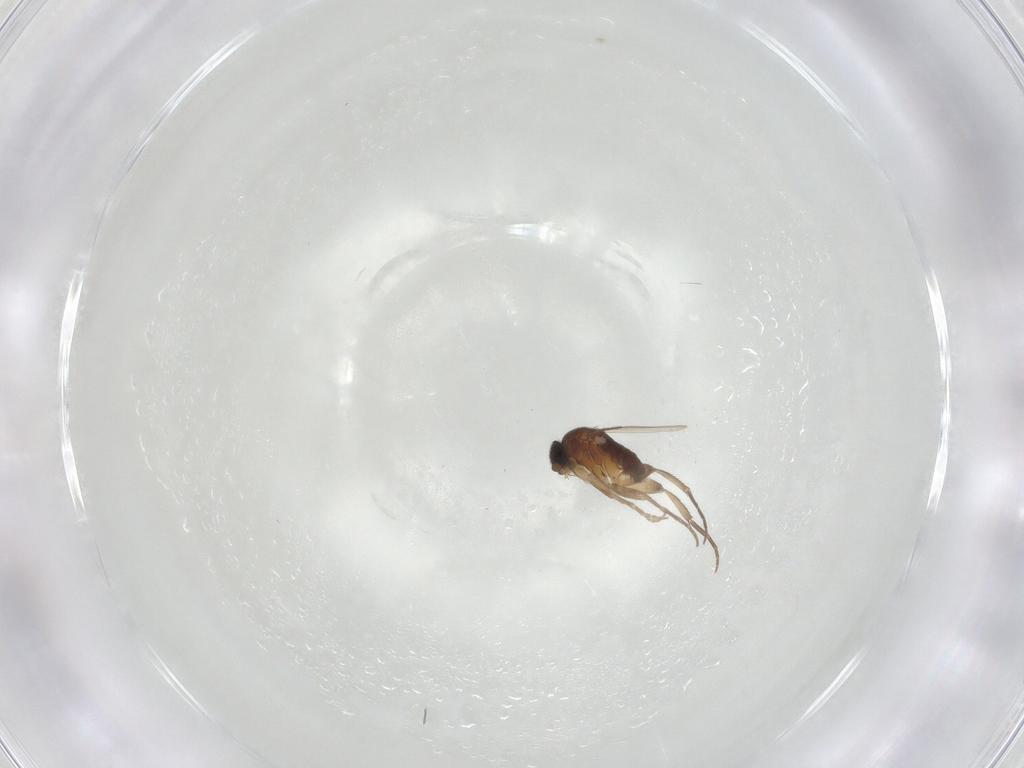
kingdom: Animalia
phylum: Arthropoda
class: Insecta
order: Diptera
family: Phoridae
